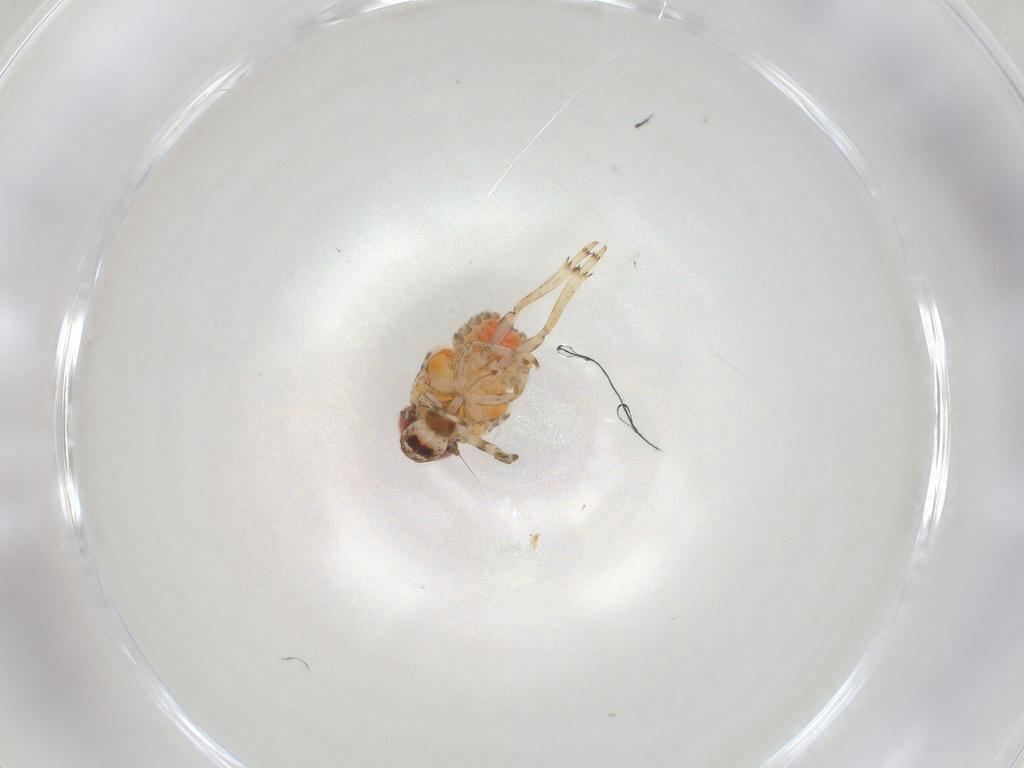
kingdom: Animalia
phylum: Arthropoda
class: Insecta
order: Hemiptera
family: Issidae
